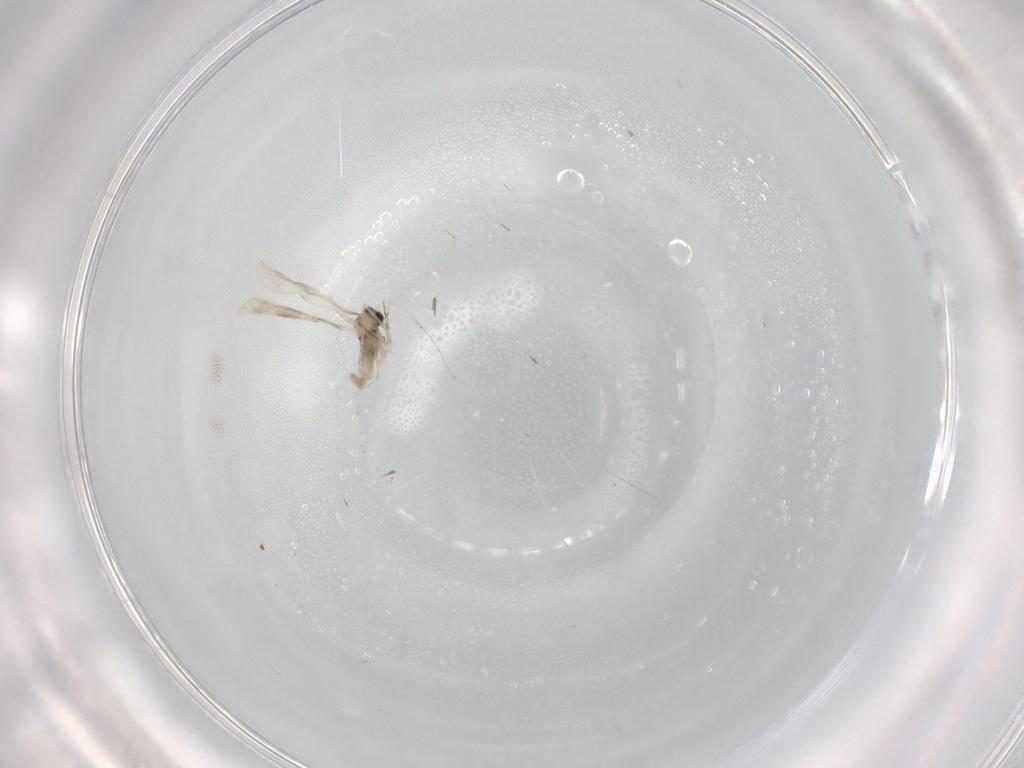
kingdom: Animalia
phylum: Arthropoda
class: Insecta
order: Diptera
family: Cecidomyiidae
